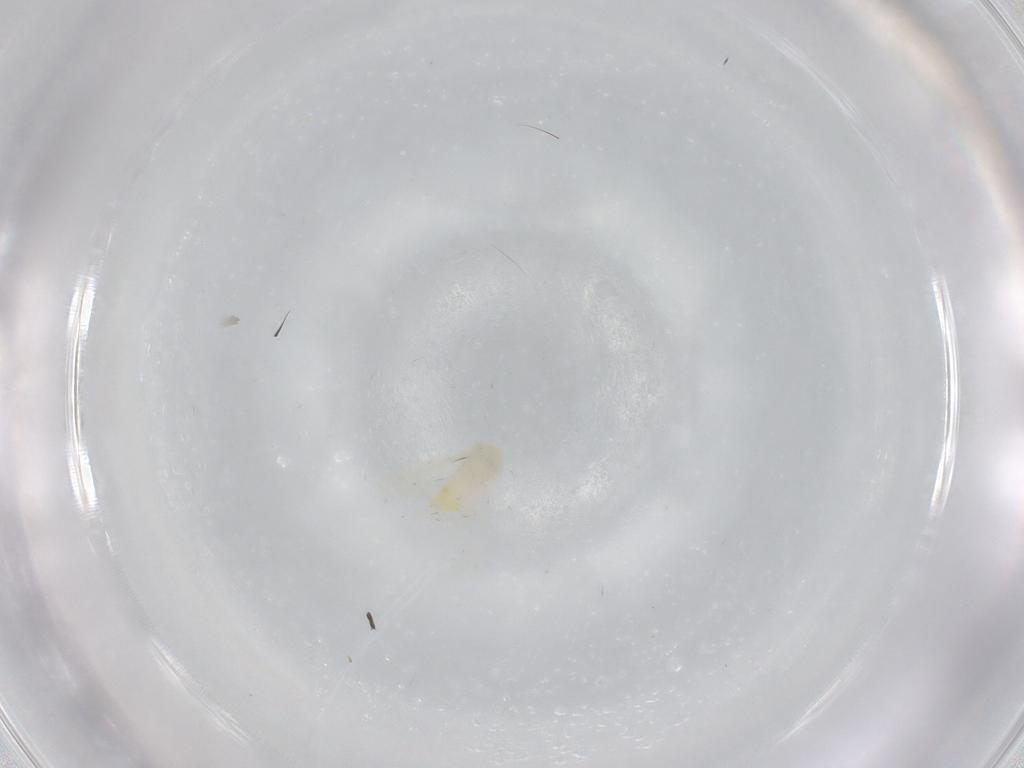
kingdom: Animalia
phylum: Arthropoda
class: Insecta
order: Hemiptera
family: Aleyrodidae
